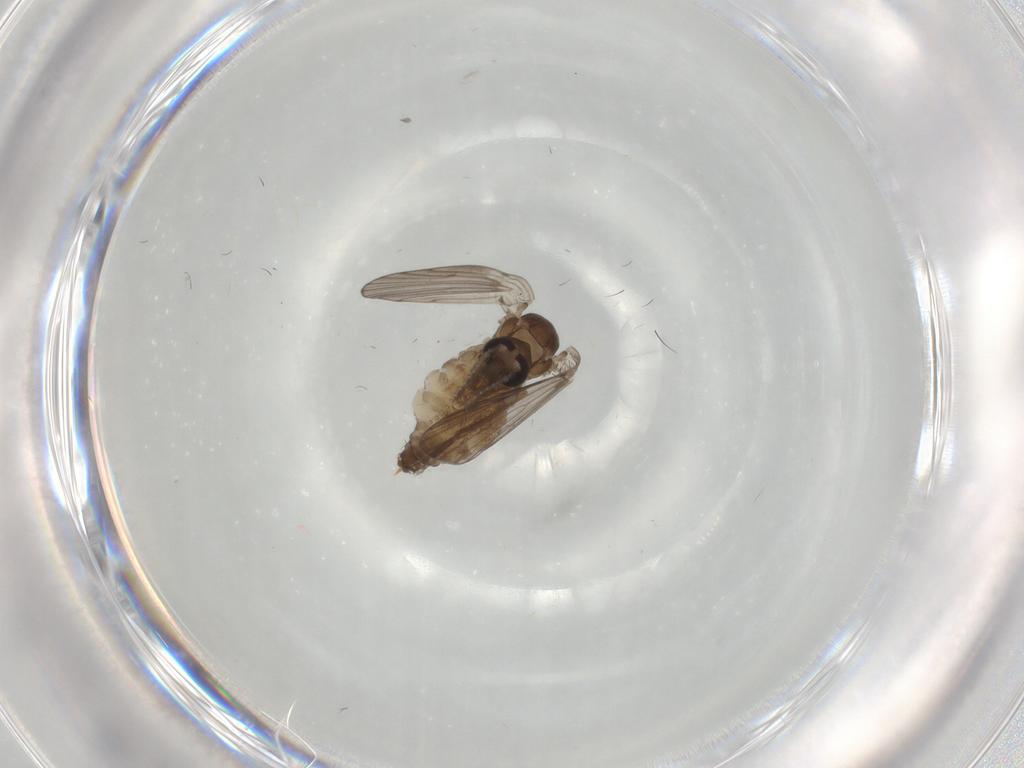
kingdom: Animalia
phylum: Arthropoda
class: Insecta
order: Diptera
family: Psychodidae
